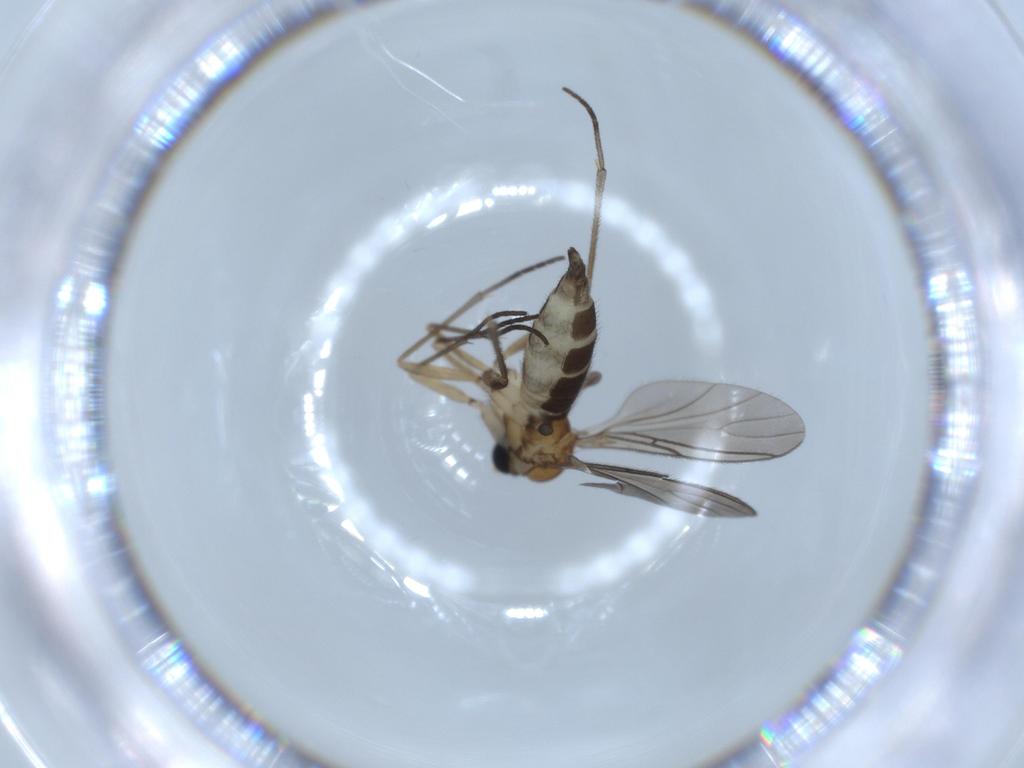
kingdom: Animalia
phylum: Arthropoda
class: Insecta
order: Diptera
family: Sciaridae
